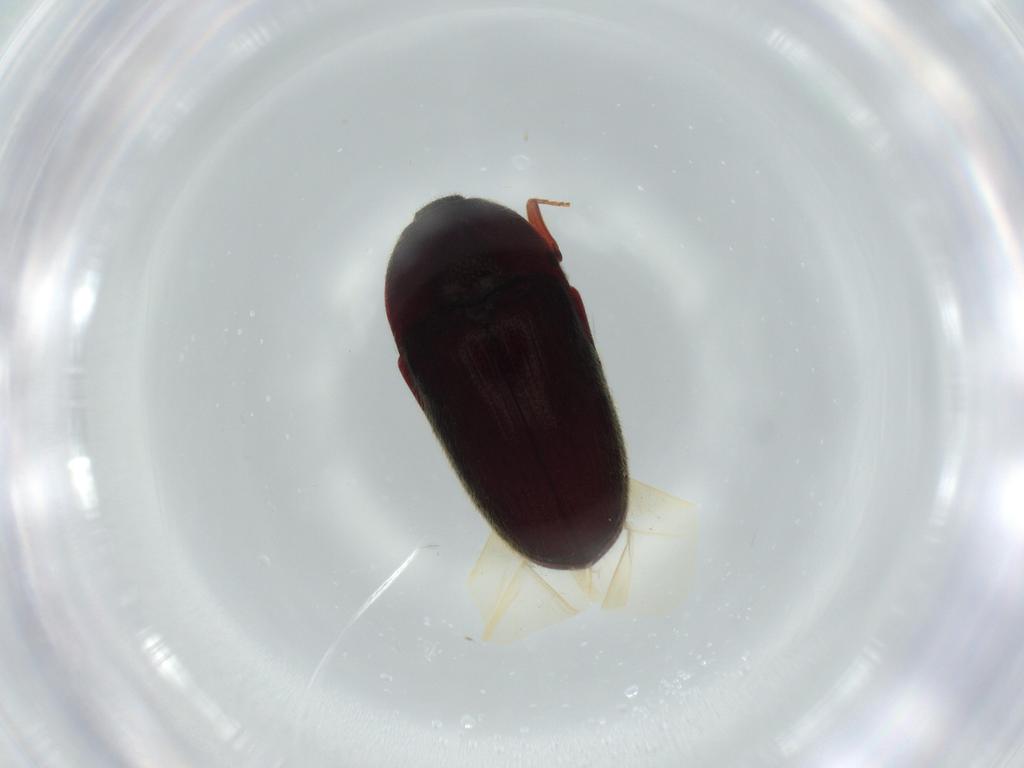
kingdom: Animalia
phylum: Arthropoda
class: Insecta
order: Coleoptera
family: Throscidae
